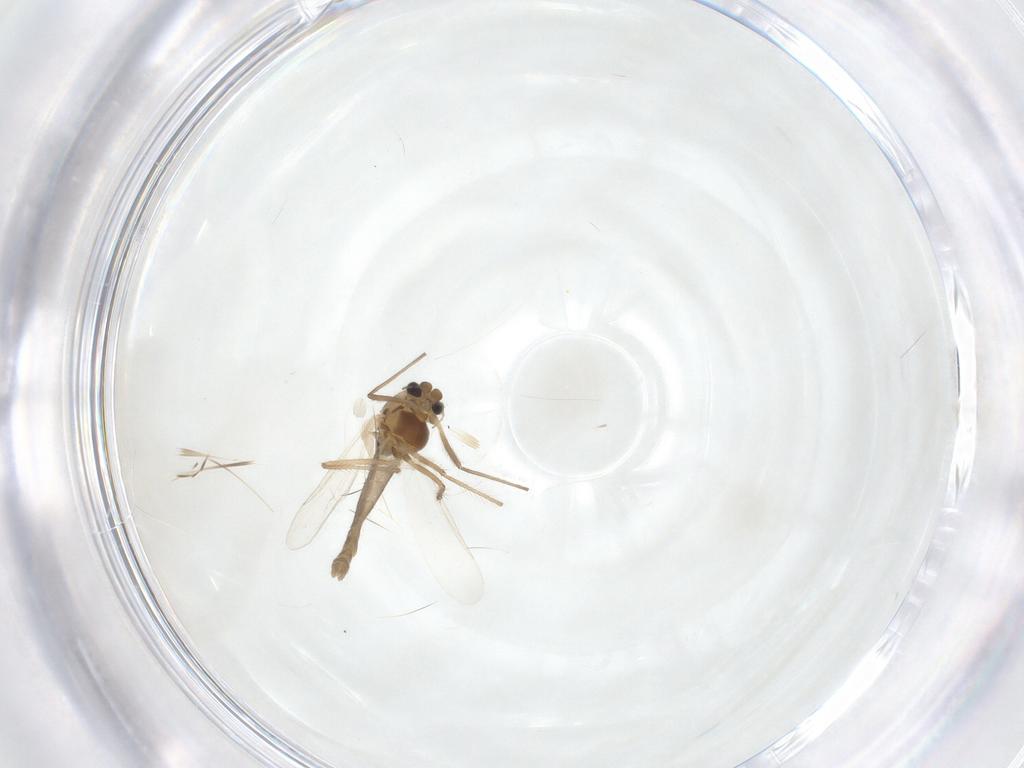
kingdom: Animalia
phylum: Arthropoda
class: Insecta
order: Diptera
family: Chironomidae
